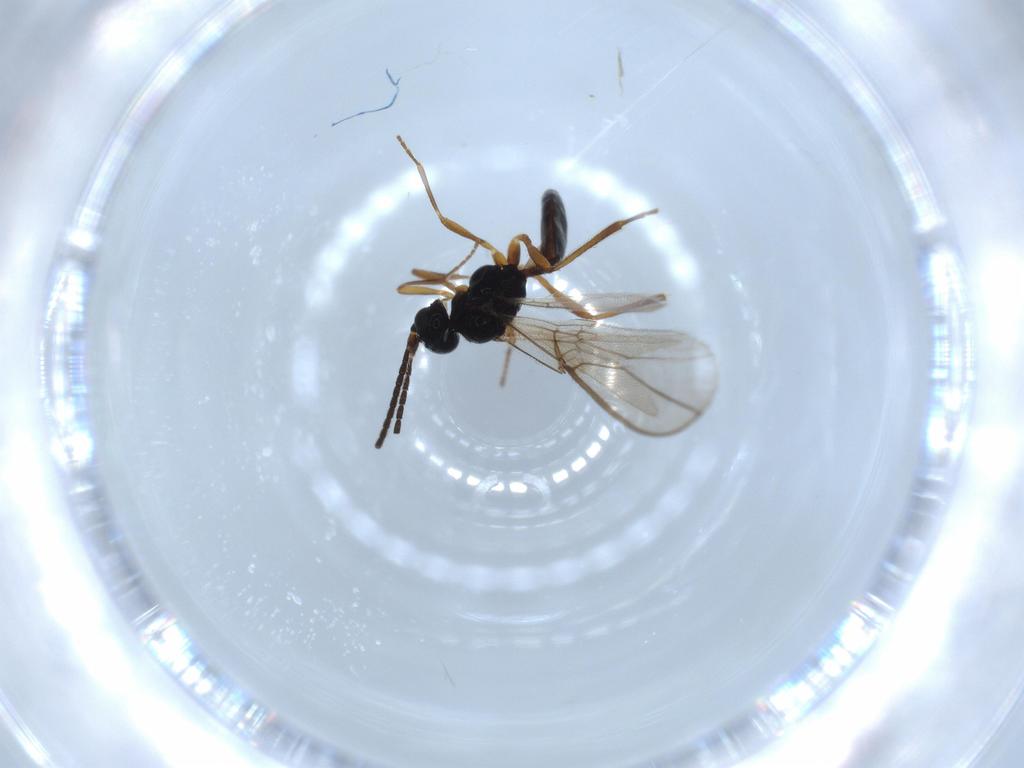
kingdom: Animalia
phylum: Arthropoda
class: Insecta
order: Hymenoptera
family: Braconidae
